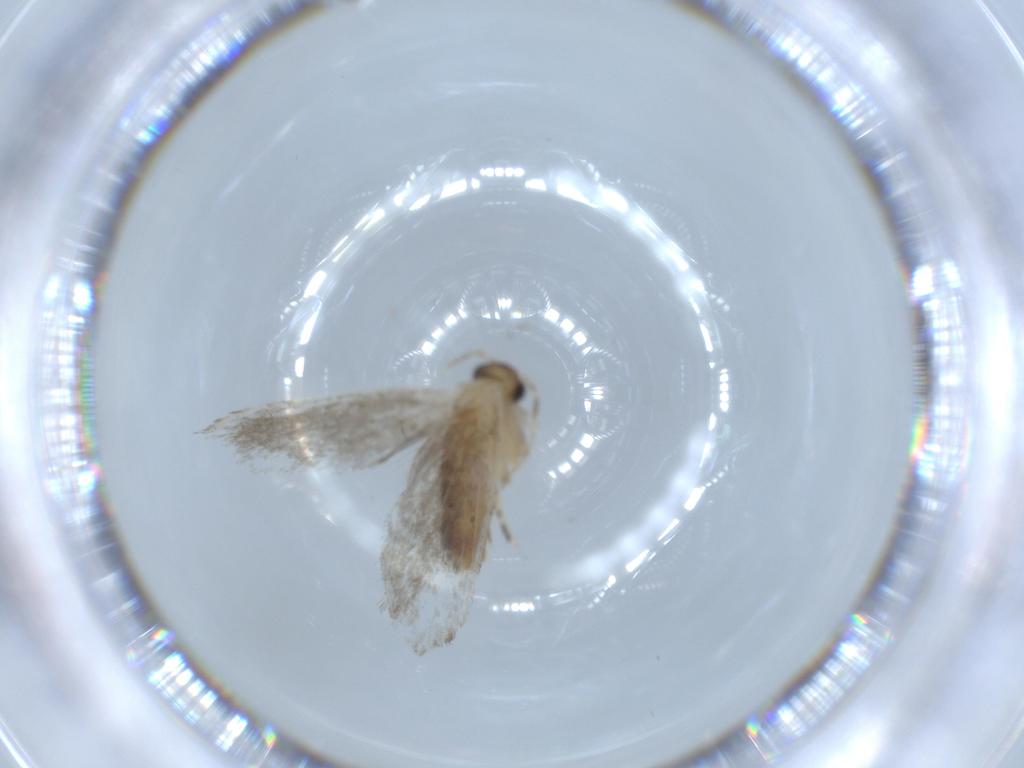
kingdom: Animalia
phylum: Arthropoda
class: Insecta
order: Lepidoptera
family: Tineidae
